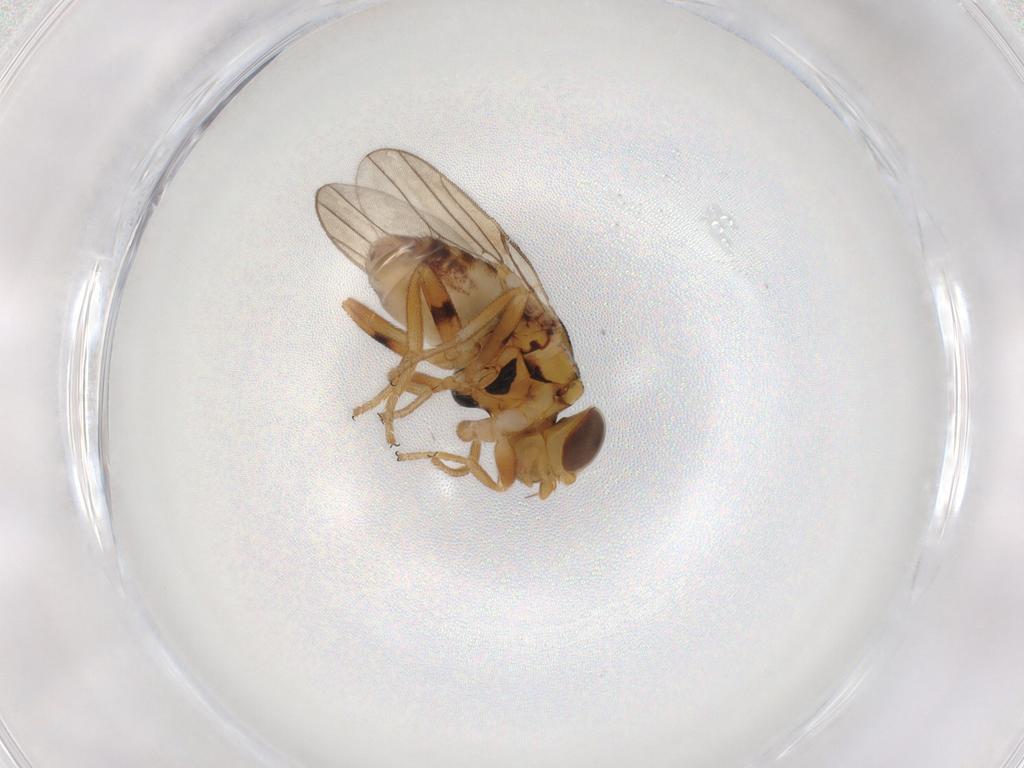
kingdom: Animalia
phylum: Arthropoda
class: Insecta
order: Diptera
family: Chloropidae
